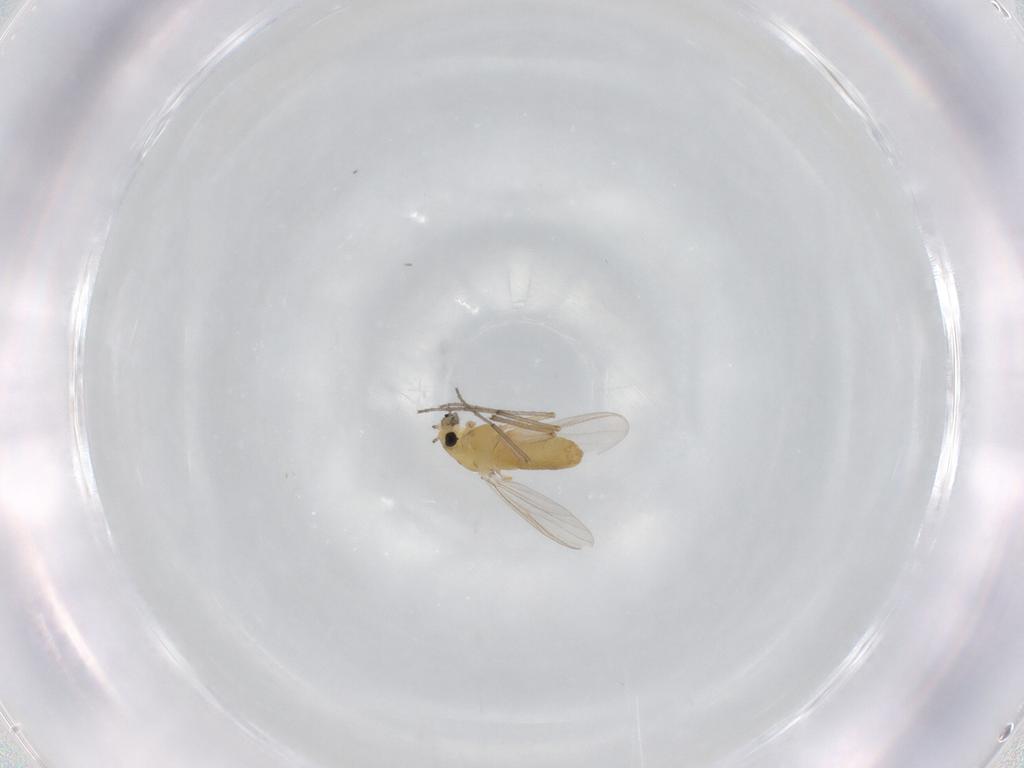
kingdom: Animalia
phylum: Arthropoda
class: Insecta
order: Diptera
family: Chironomidae
